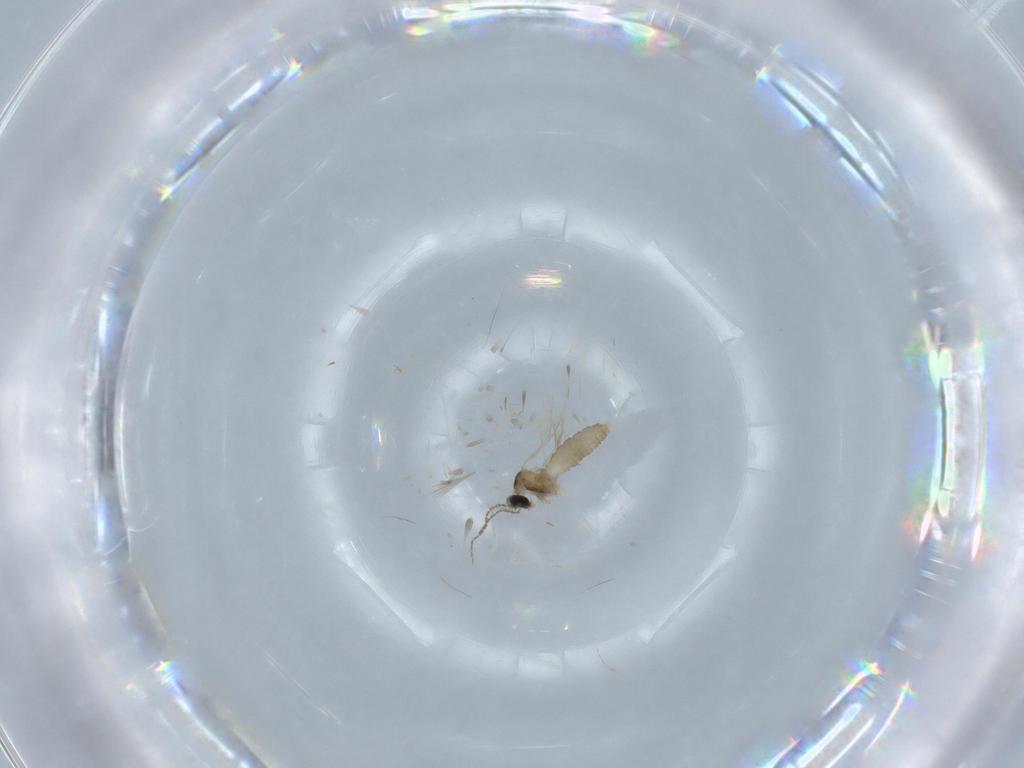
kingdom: Animalia
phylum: Arthropoda
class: Insecta
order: Diptera
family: Cecidomyiidae
